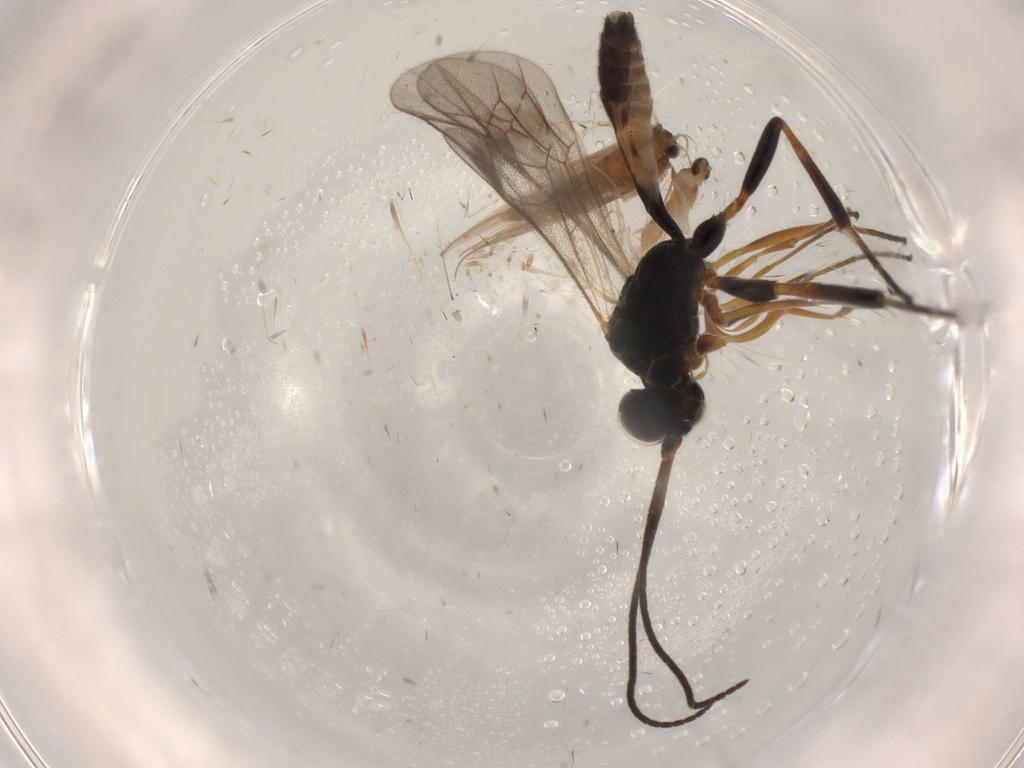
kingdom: Animalia
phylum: Arthropoda
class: Insecta
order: Hymenoptera
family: Ichneumonidae
